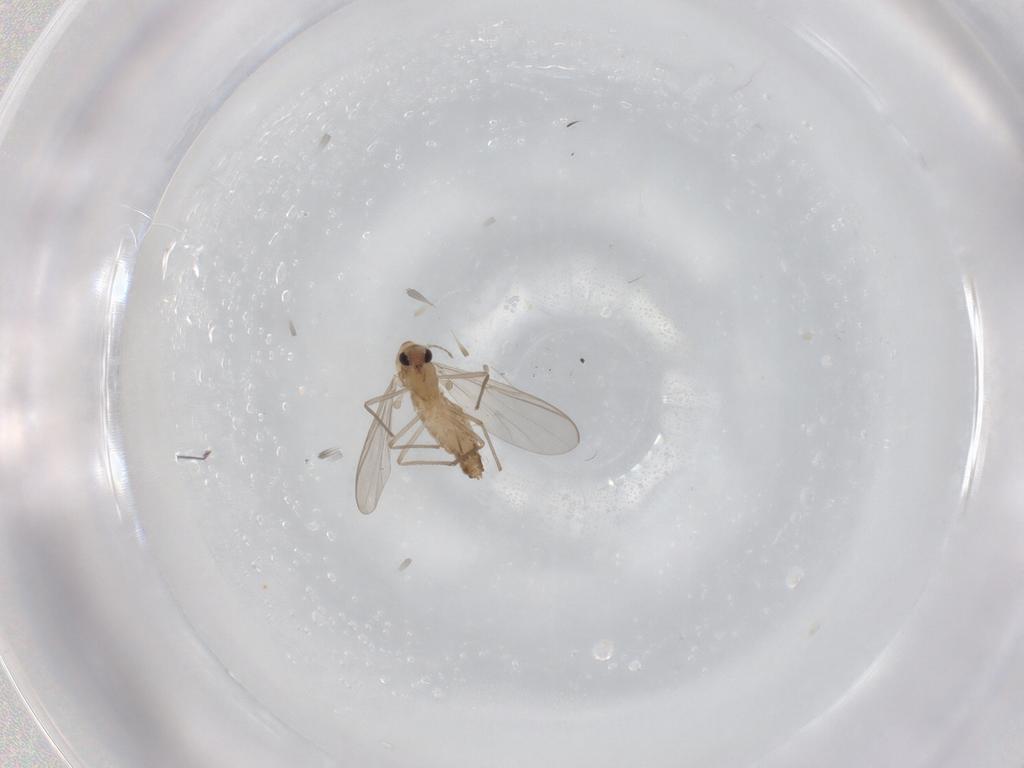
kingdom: Animalia
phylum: Arthropoda
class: Insecta
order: Diptera
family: Chironomidae
